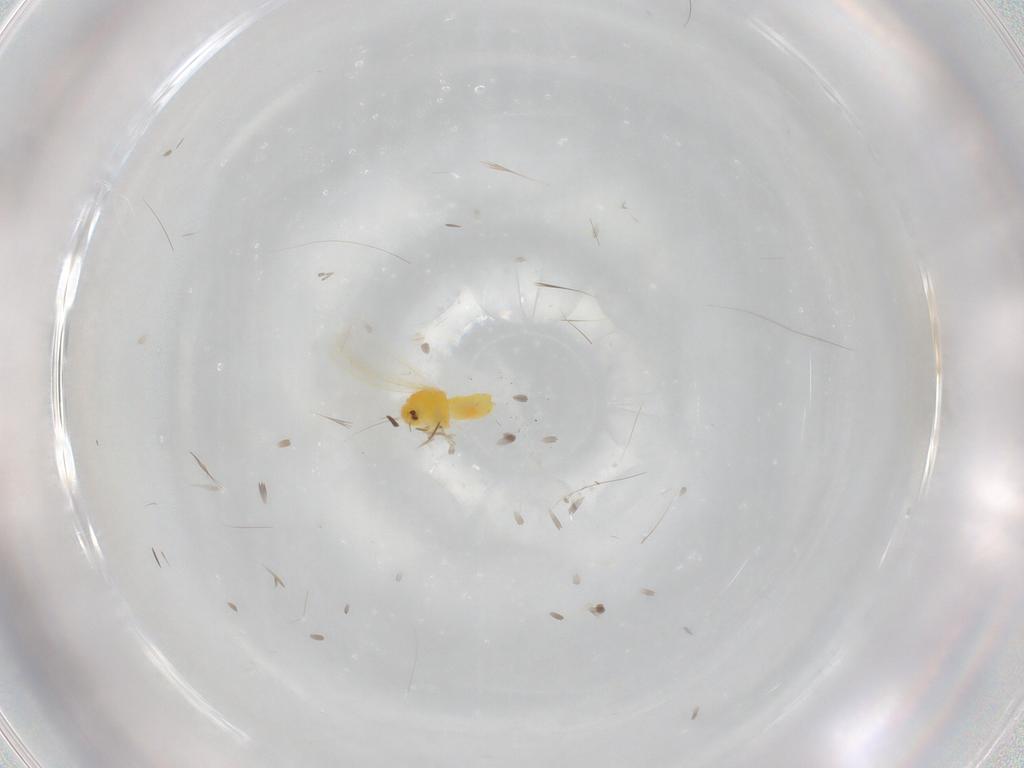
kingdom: Animalia
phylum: Arthropoda
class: Insecta
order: Hemiptera
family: Aleyrodidae
